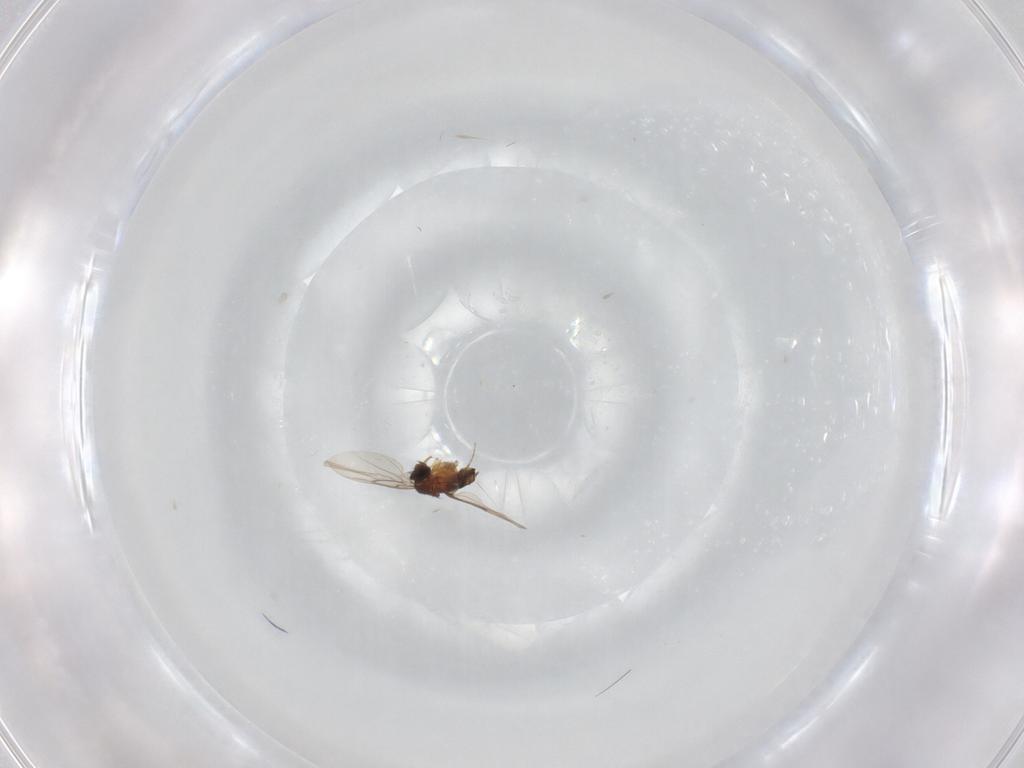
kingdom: Animalia
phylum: Arthropoda
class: Insecta
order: Diptera
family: Phoridae
